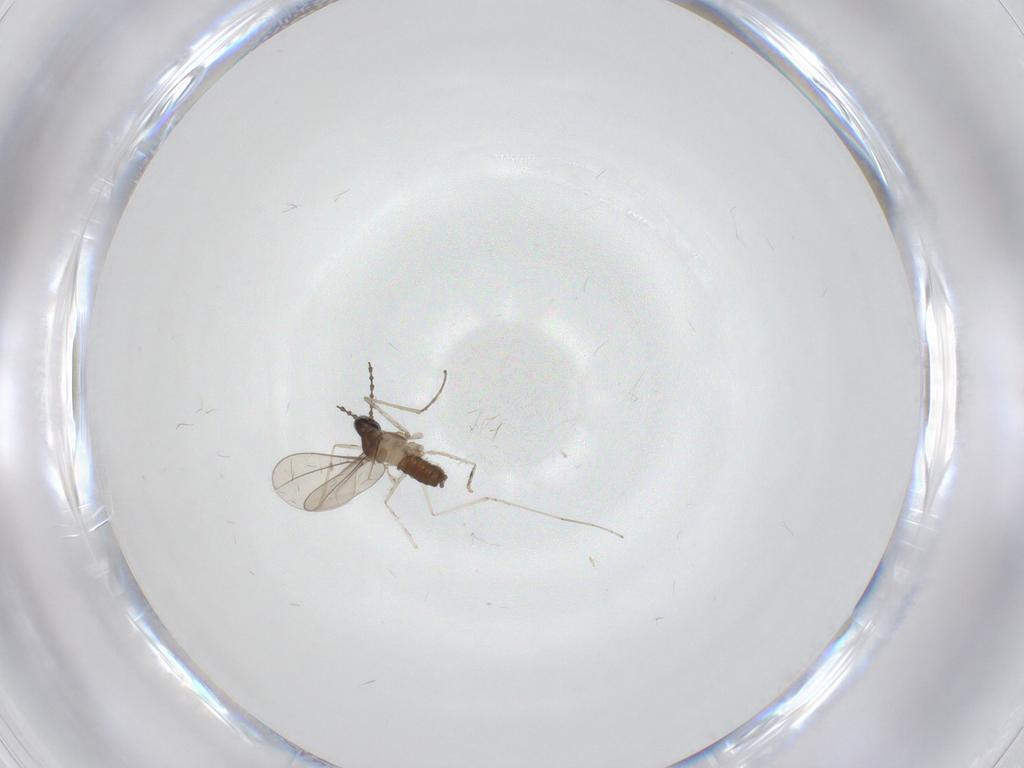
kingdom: Animalia
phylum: Arthropoda
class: Insecta
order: Diptera
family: Cecidomyiidae
